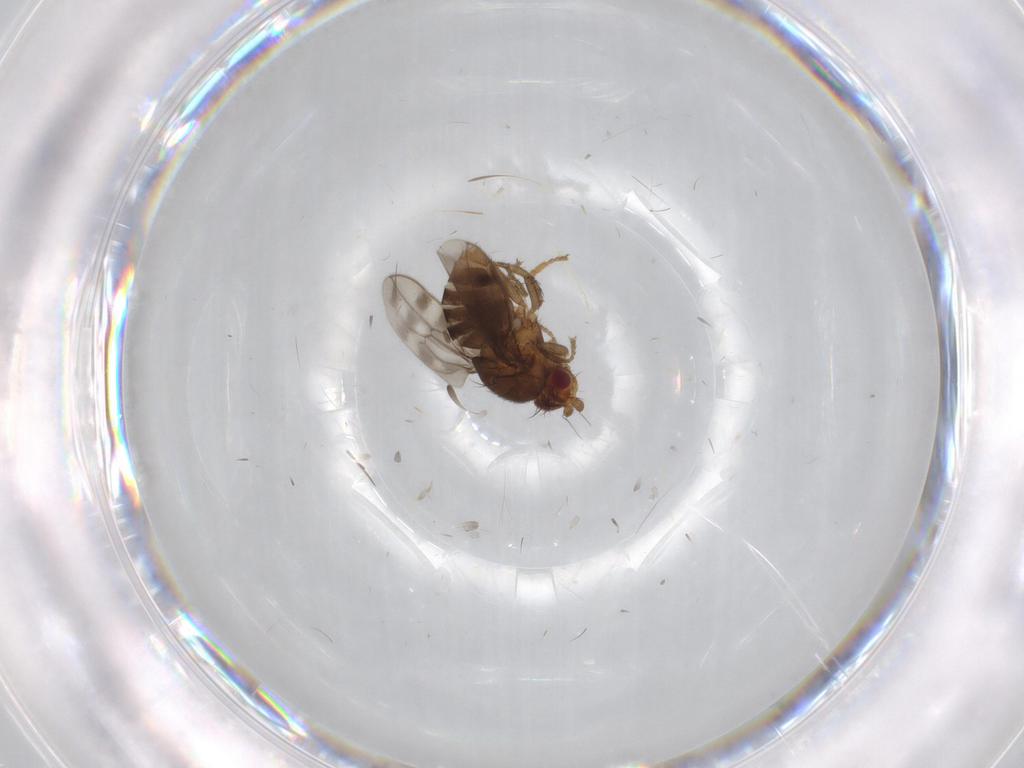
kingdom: Animalia
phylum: Arthropoda
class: Insecta
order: Diptera
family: Sphaeroceridae
